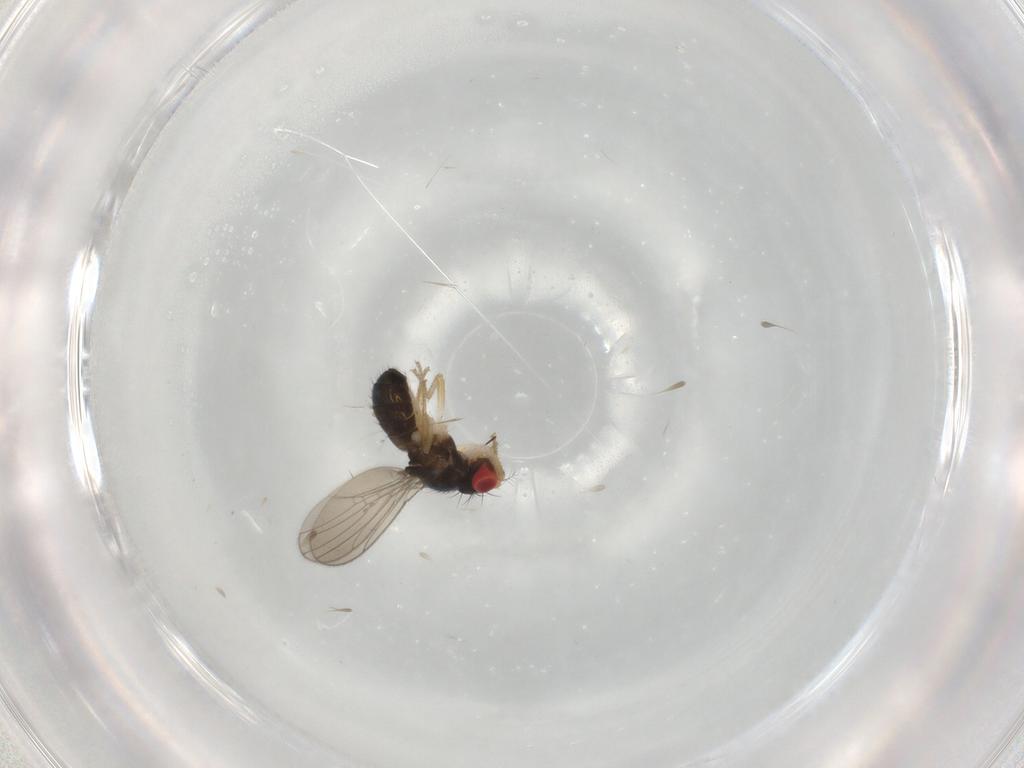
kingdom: Animalia
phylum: Arthropoda
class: Insecta
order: Diptera
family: Drosophilidae
